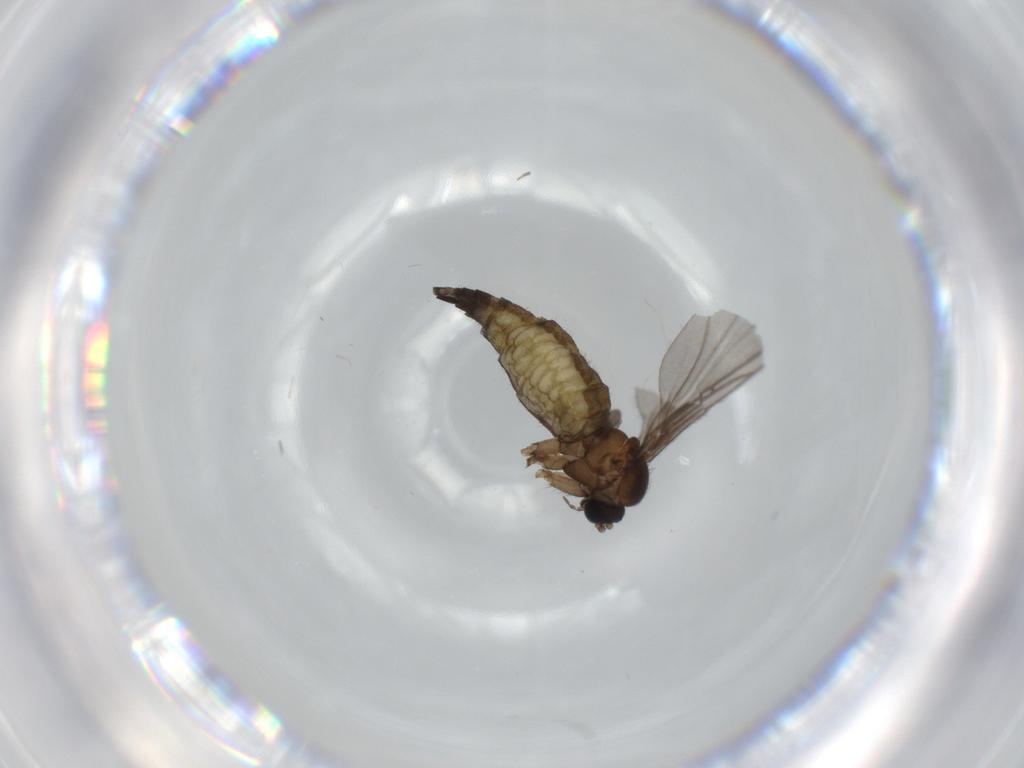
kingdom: Animalia
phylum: Arthropoda
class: Insecta
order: Diptera
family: Sciaridae
